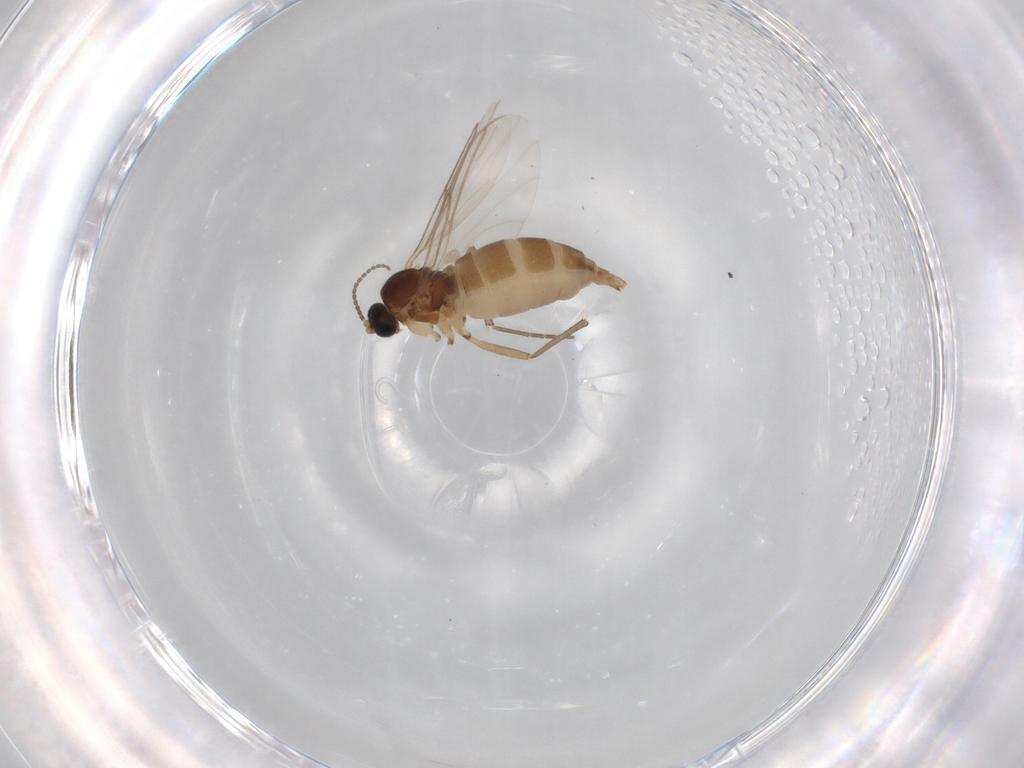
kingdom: Animalia
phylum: Arthropoda
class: Insecta
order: Diptera
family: Sciaridae
